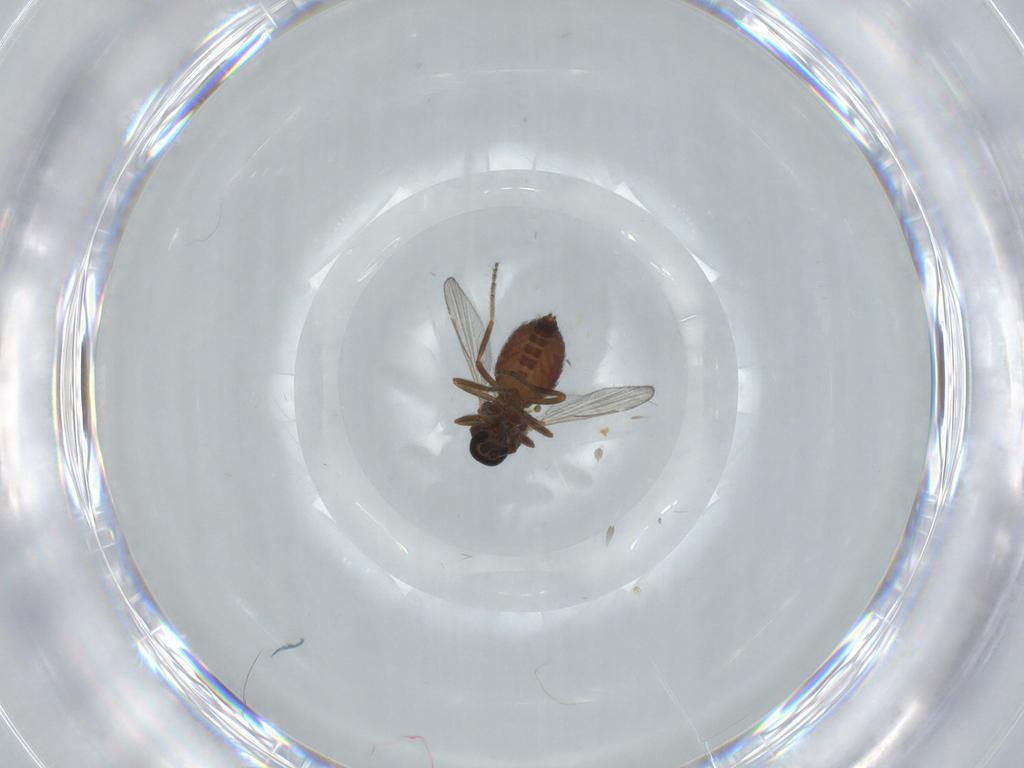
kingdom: Animalia
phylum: Arthropoda
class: Insecta
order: Diptera
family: Ceratopogonidae
